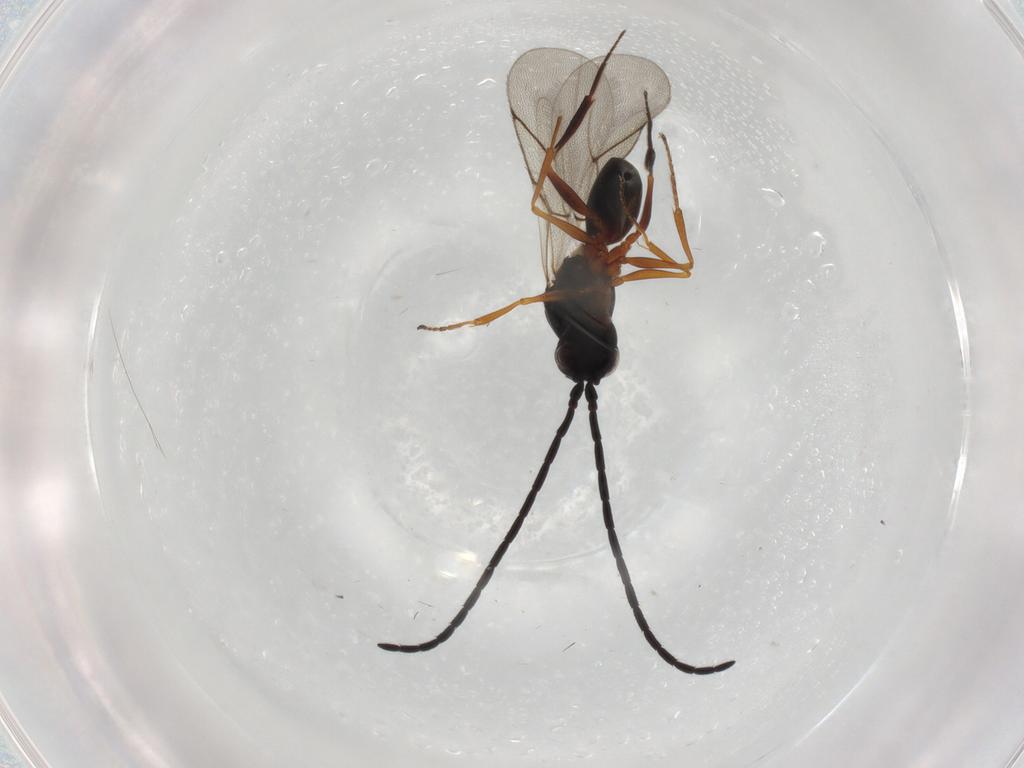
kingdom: Animalia
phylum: Arthropoda
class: Insecta
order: Hymenoptera
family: Figitidae
